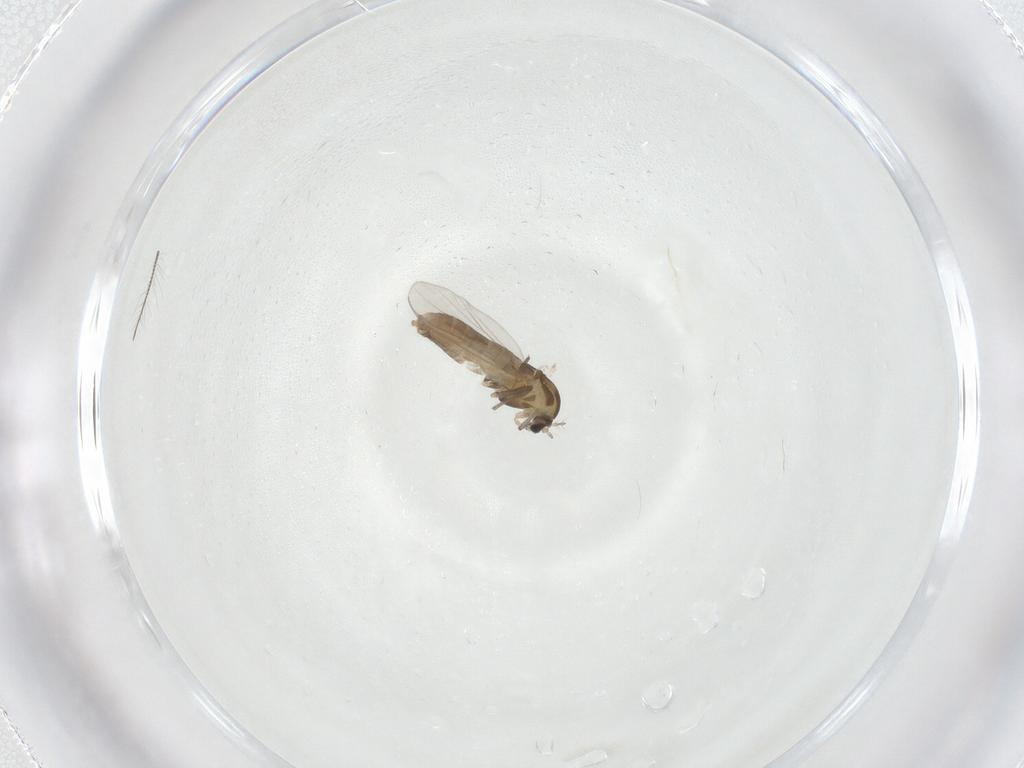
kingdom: Animalia
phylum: Arthropoda
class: Insecta
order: Diptera
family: Chironomidae
